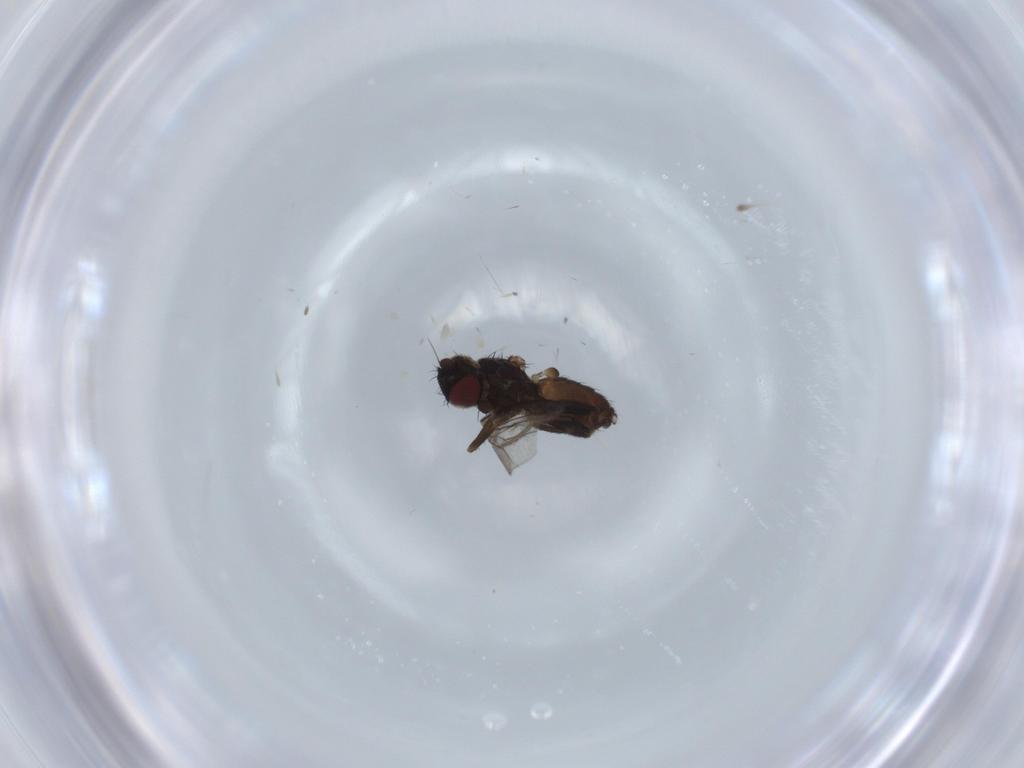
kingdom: Animalia
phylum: Arthropoda
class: Insecta
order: Diptera
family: Milichiidae
